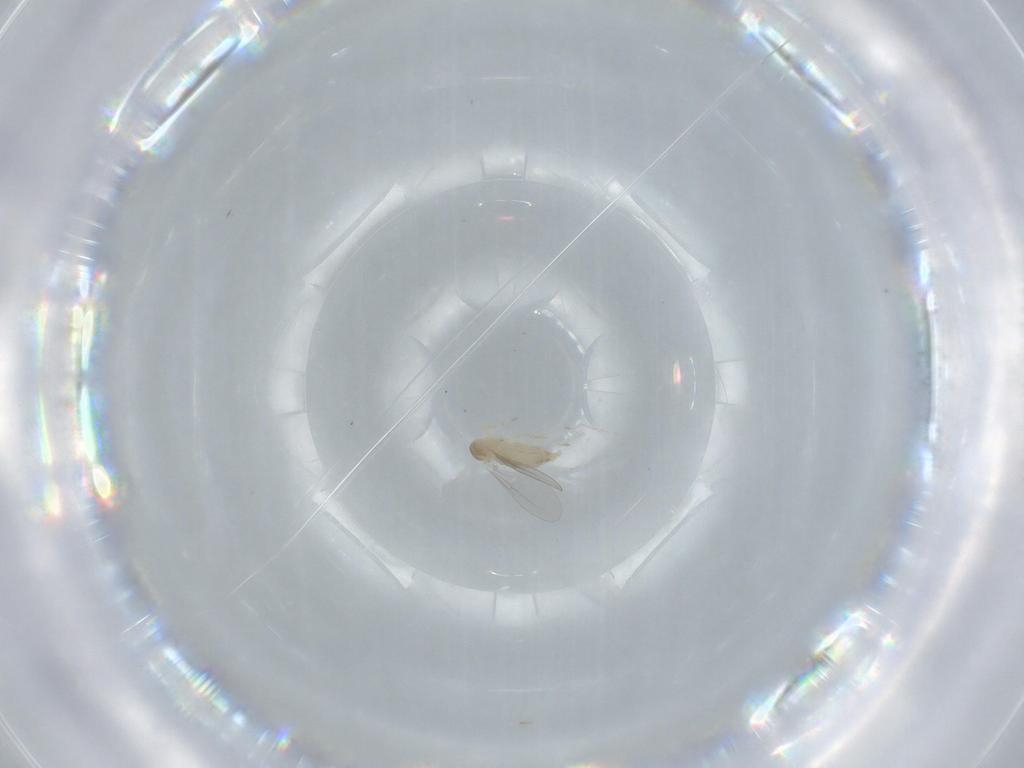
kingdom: Animalia
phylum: Arthropoda
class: Insecta
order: Diptera
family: Cecidomyiidae
